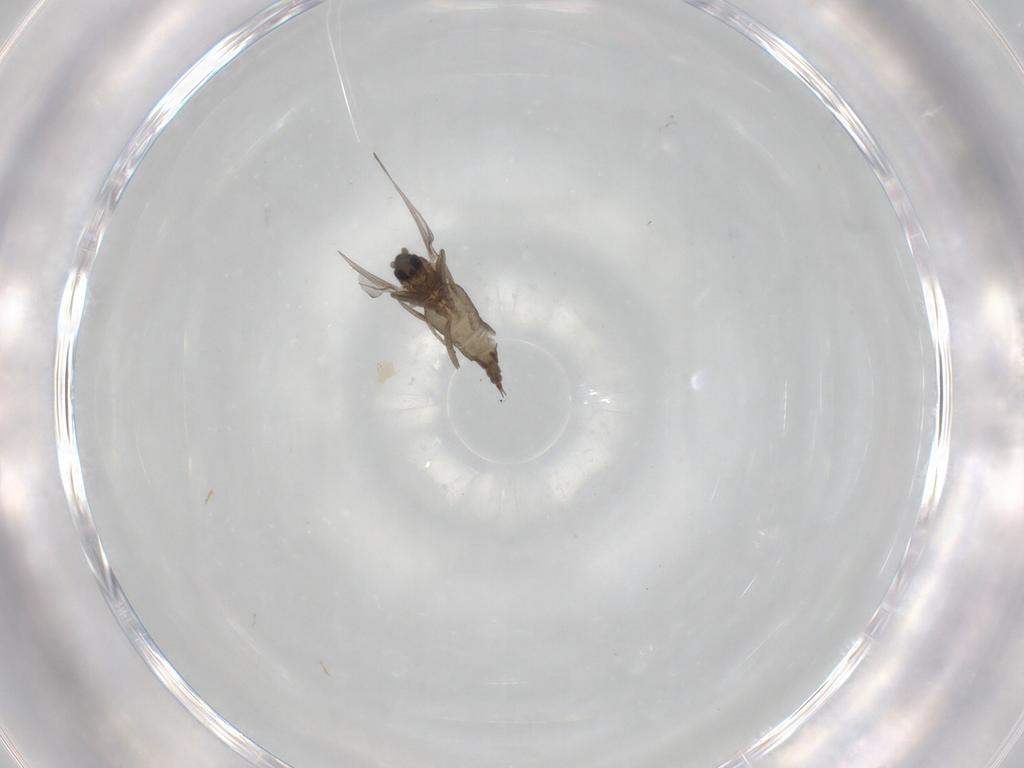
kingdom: Animalia
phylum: Arthropoda
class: Insecta
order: Diptera
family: Cecidomyiidae
